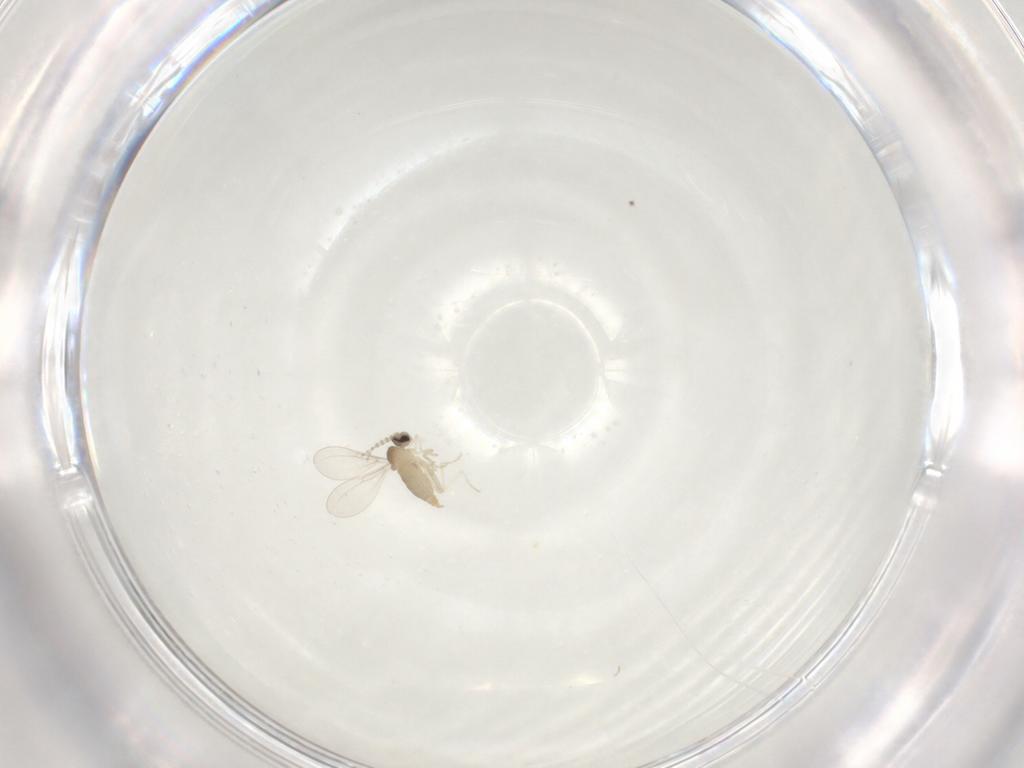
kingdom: Animalia
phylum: Arthropoda
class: Insecta
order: Diptera
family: Cecidomyiidae
